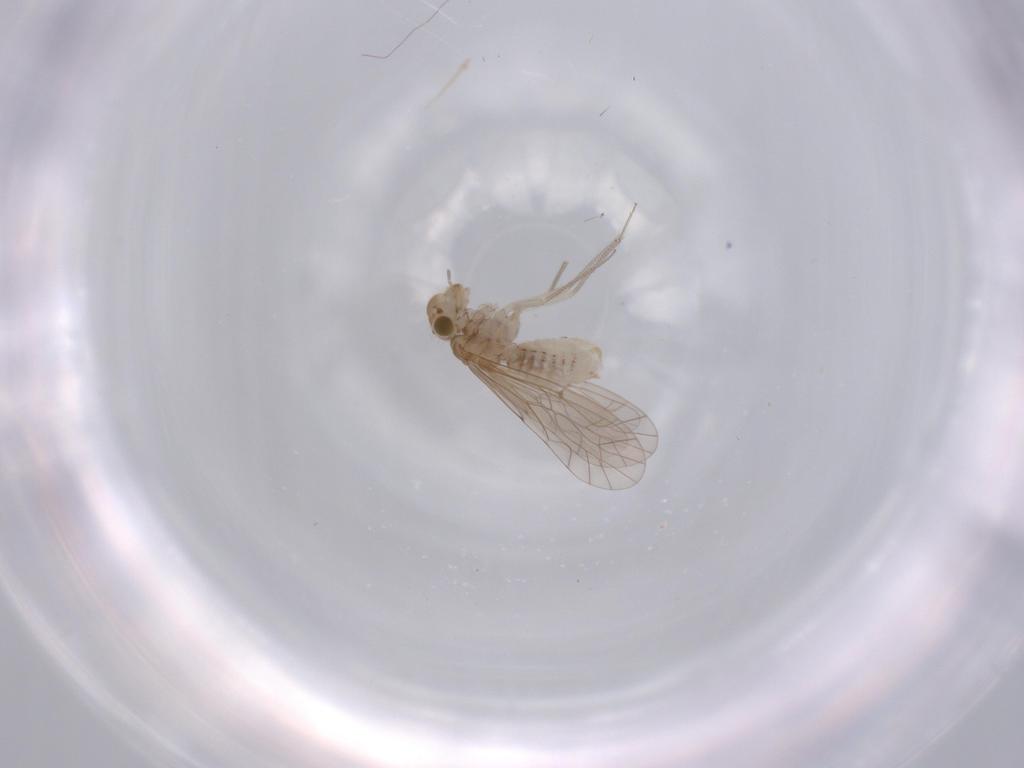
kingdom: Animalia
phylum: Arthropoda
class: Insecta
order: Psocodea
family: Lachesillidae
